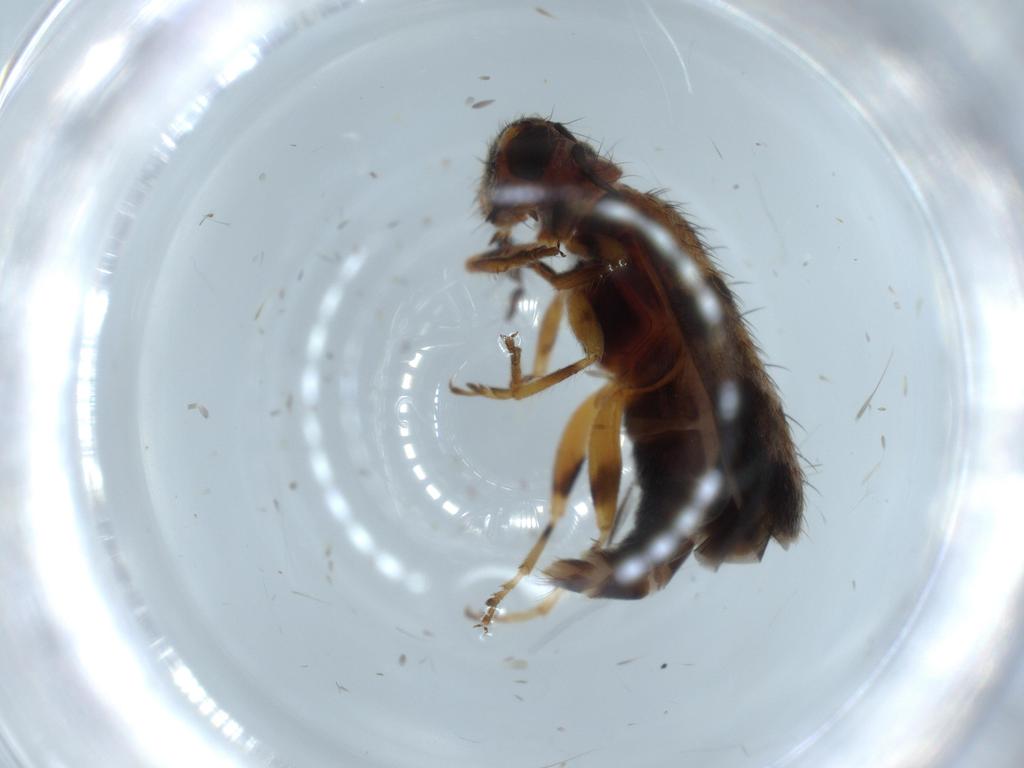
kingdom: Animalia
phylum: Arthropoda
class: Insecta
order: Coleoptera
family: Chrysomelidae
